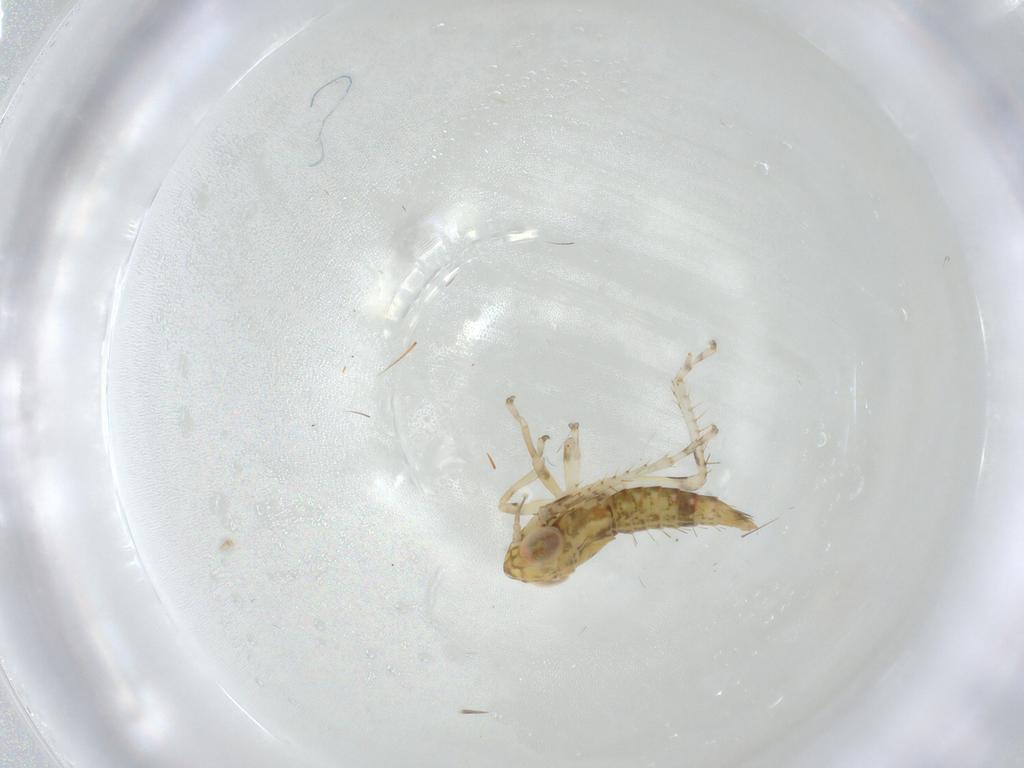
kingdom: Animalia
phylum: Arthropoda
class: Insecta
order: Hemiptera
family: Cicadellidae
